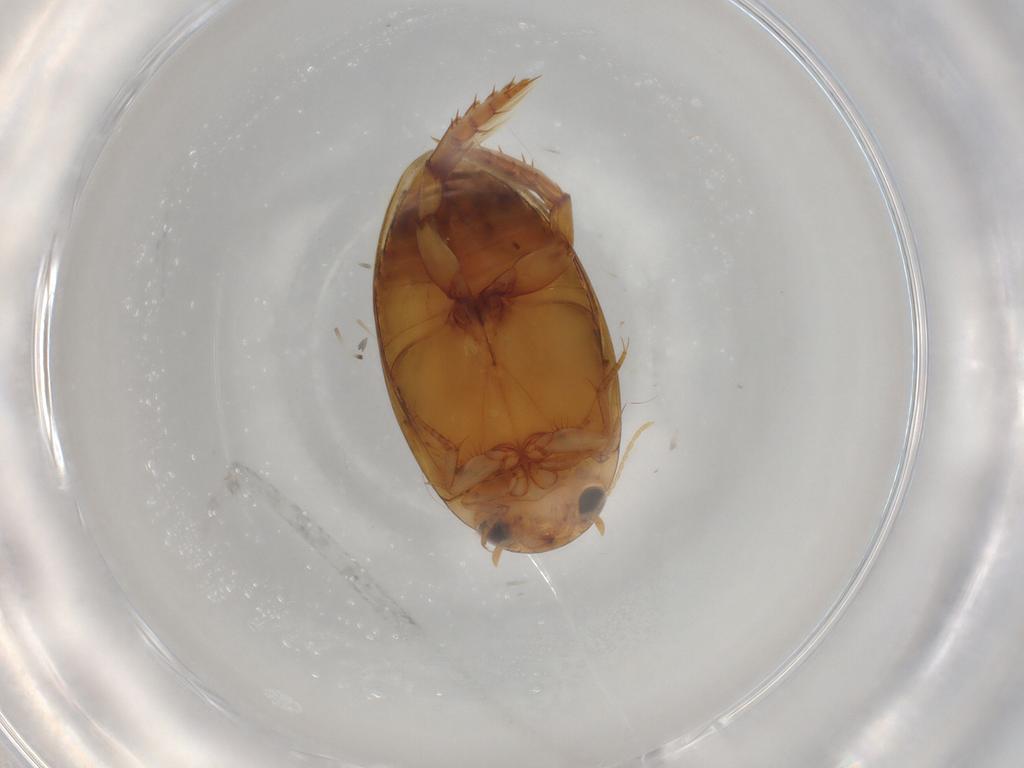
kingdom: Animalia
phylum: Arthropoda
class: Insecta
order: Coleoptera
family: Dytiscidae
